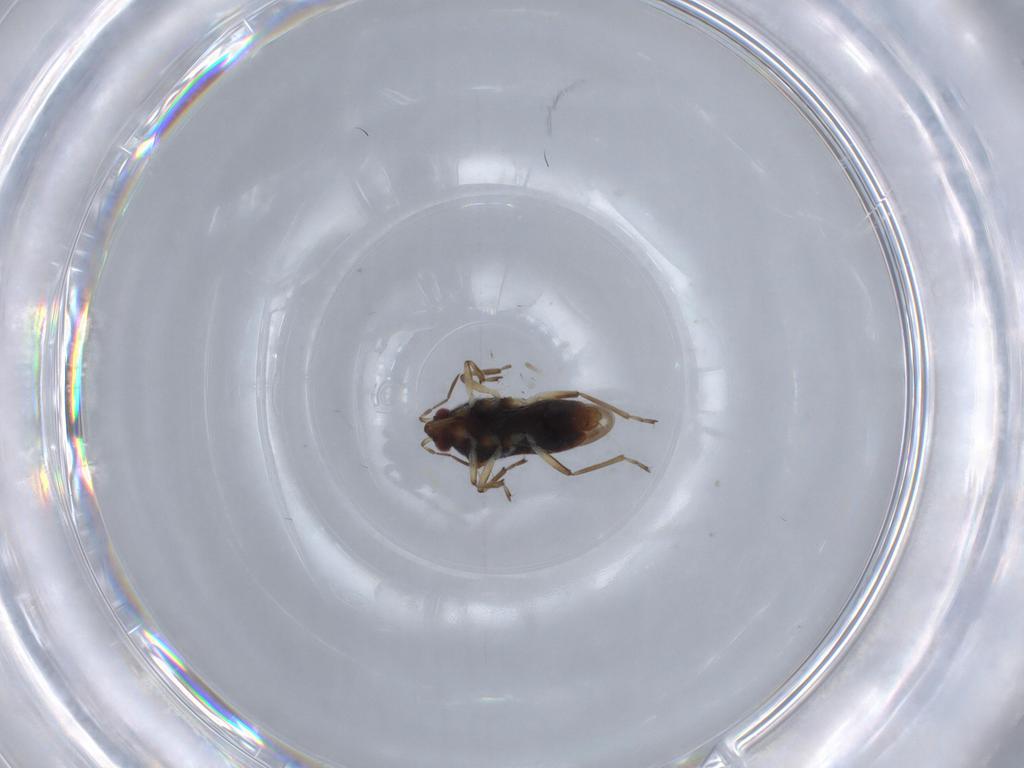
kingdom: Animalia
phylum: Arthropoda
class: Insecta
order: Hemiptera
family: Veliidae
